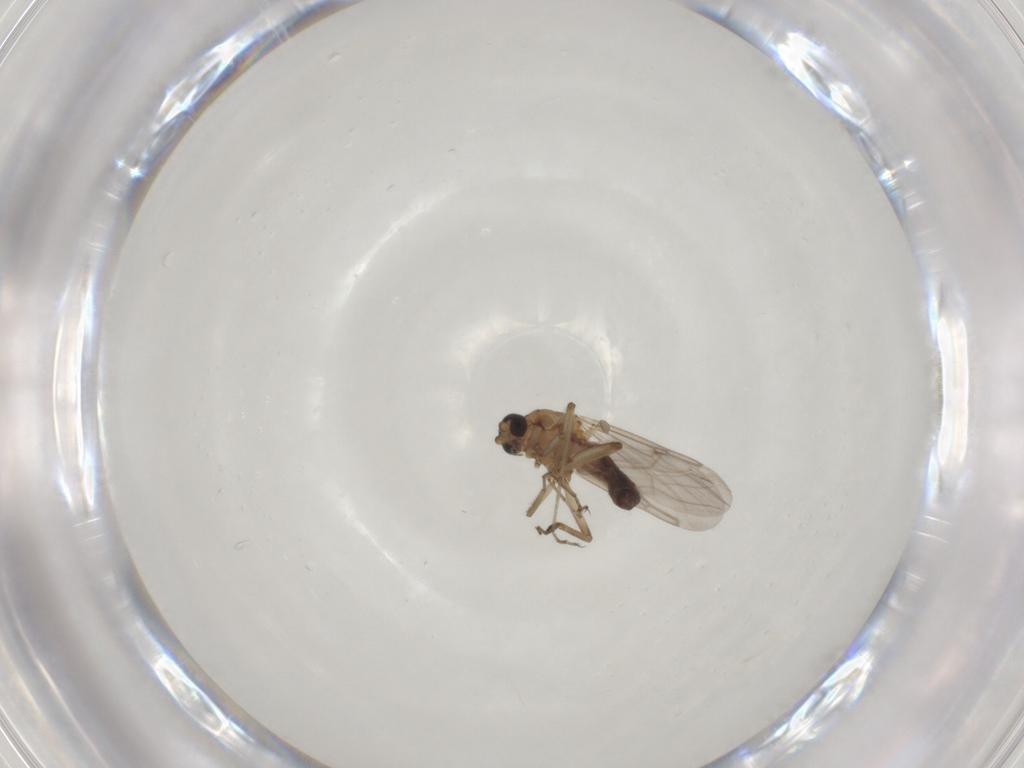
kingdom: Animalia
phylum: Arthropoda
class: Insecta
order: Diptera
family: Ceratopogonidae
